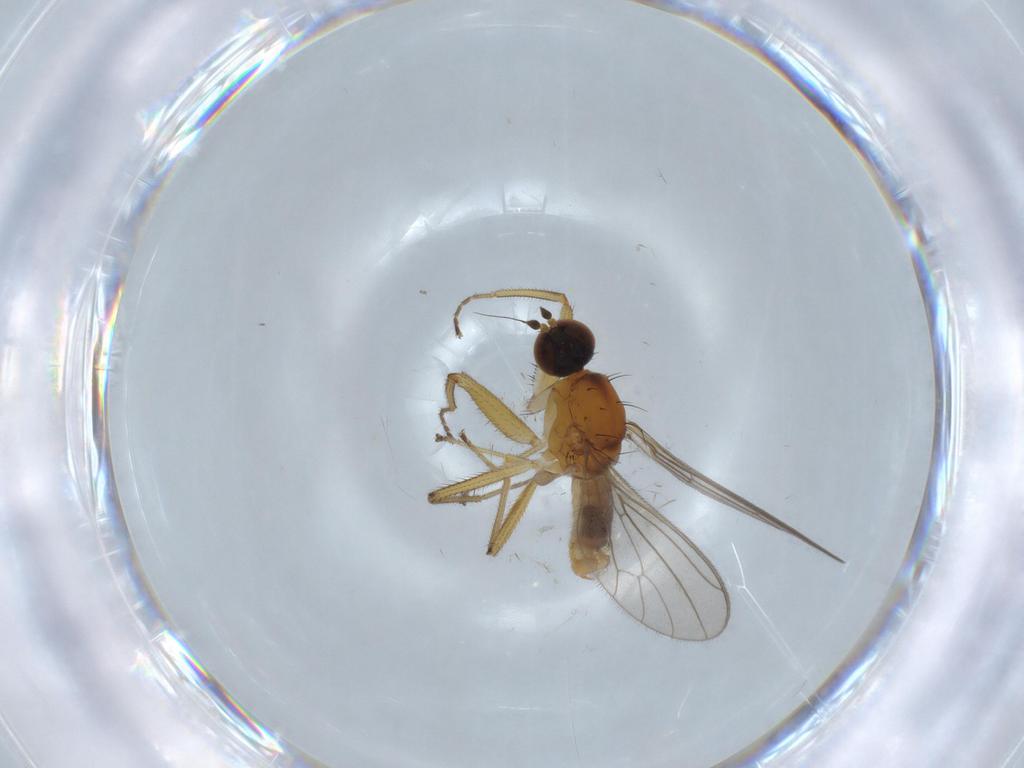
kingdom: Animalia
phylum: Arthropoda
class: Insecta
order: Diptera
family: Empididae
